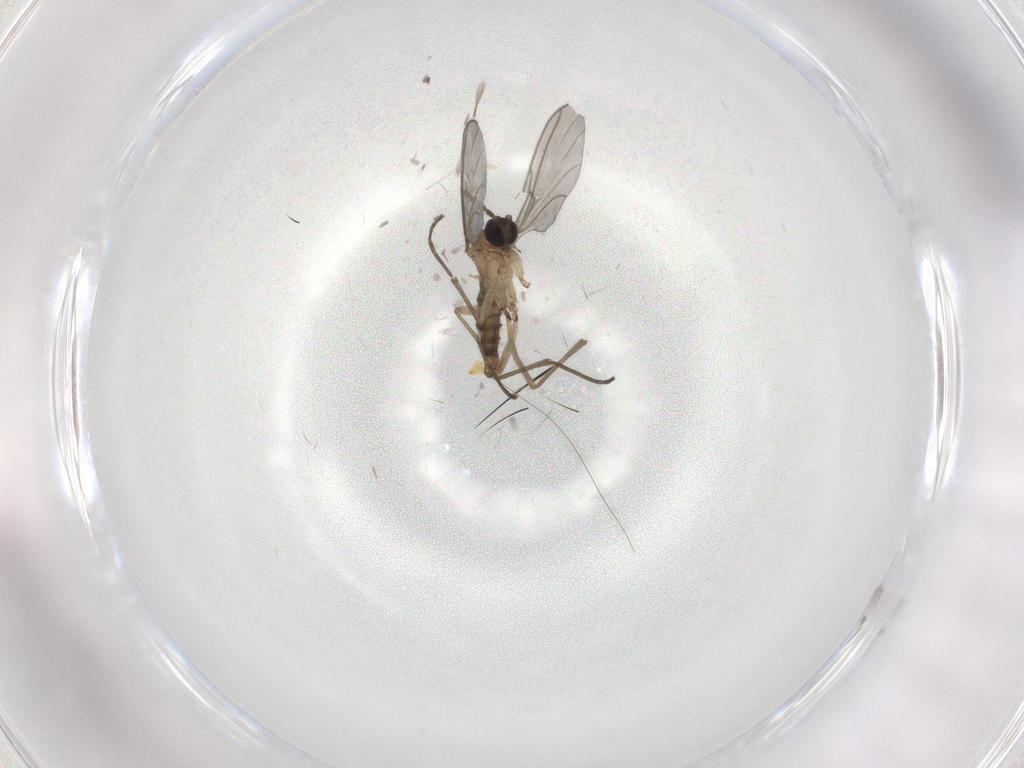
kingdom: Animalia
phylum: Arthropoda
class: Insecta
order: Diptera
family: Sciaridae
